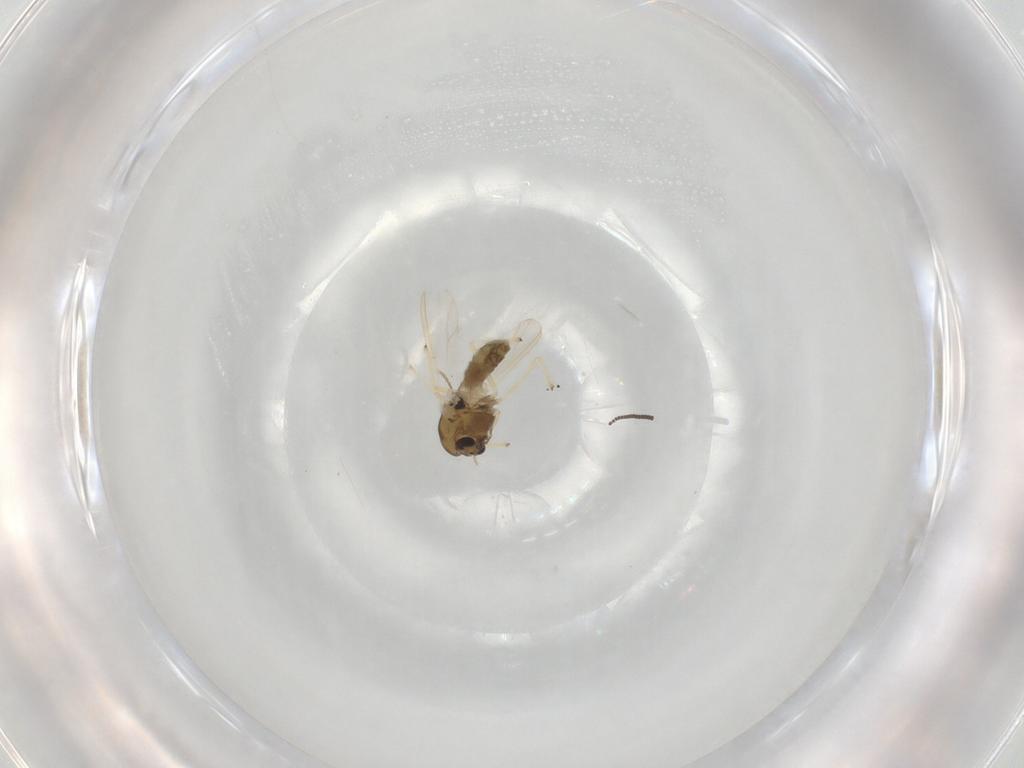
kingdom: Animalia
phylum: Arthropoda
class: Insecta
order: Diptera
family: Chironomidae
